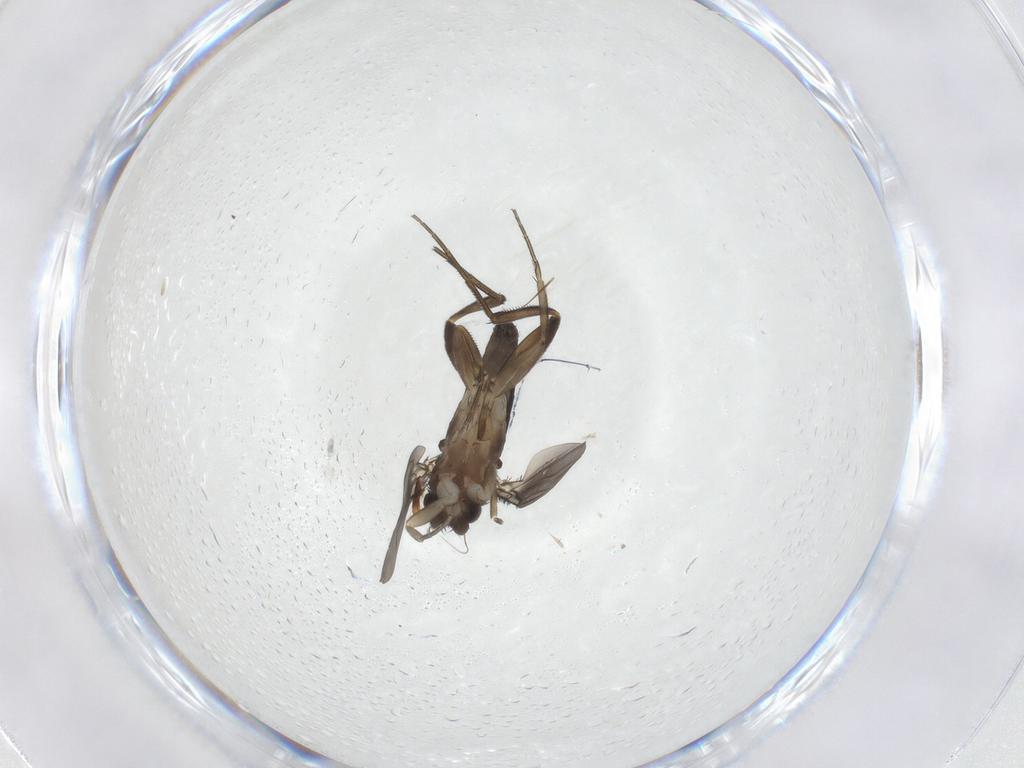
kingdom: Animalia
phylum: Arthropoda
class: Insecta
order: Diptera
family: Phoridae
